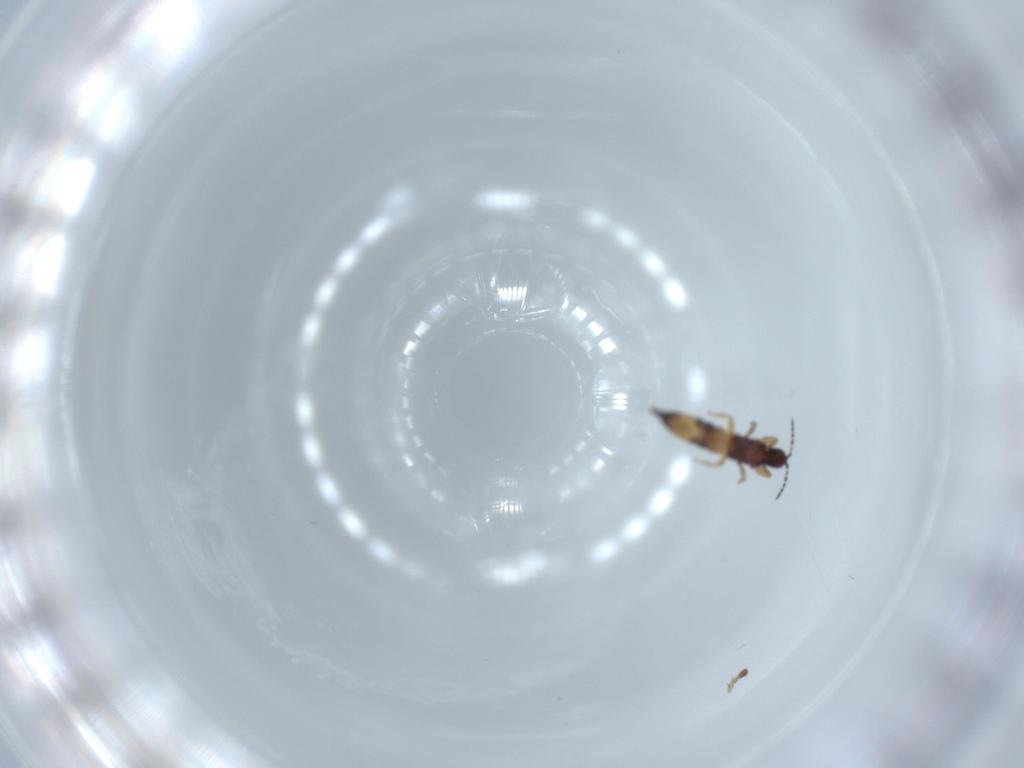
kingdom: Animalia
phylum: Arthropoda
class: Insecta
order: Thysanoptera
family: Phlaeothripidae
